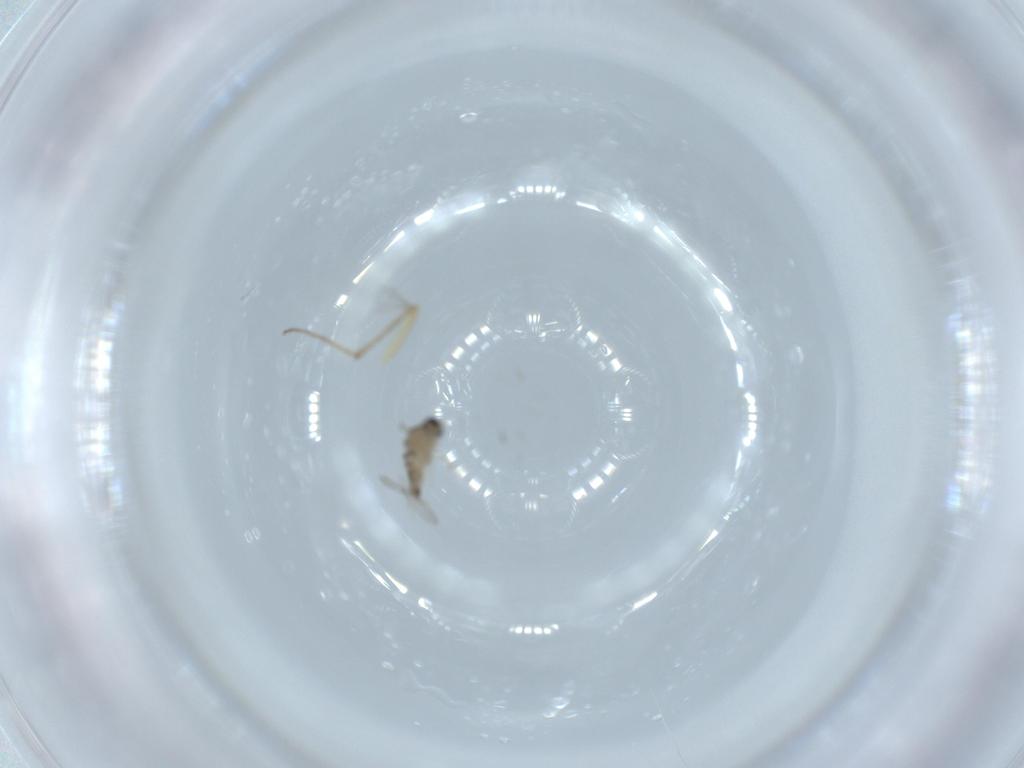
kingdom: Animalia
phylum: Arthropoda
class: Insecta
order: Diptera
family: Cecidomyiidae
